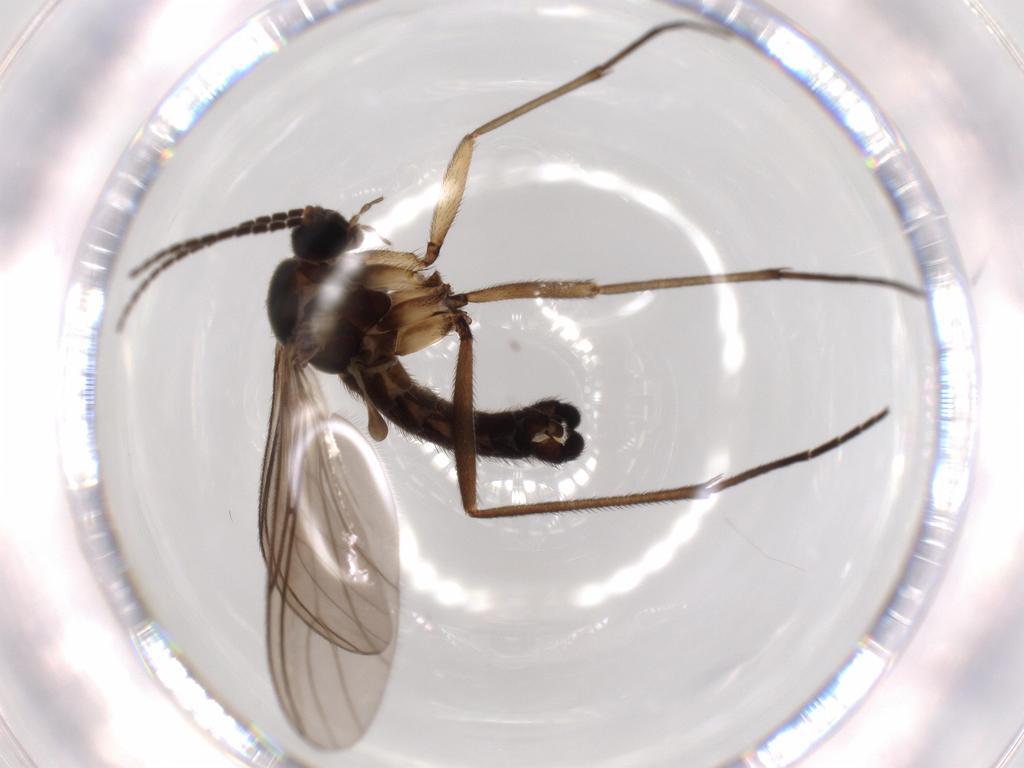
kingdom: Animalia
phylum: Arthropoda
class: Insecta
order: Diptera
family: Sciaridae
